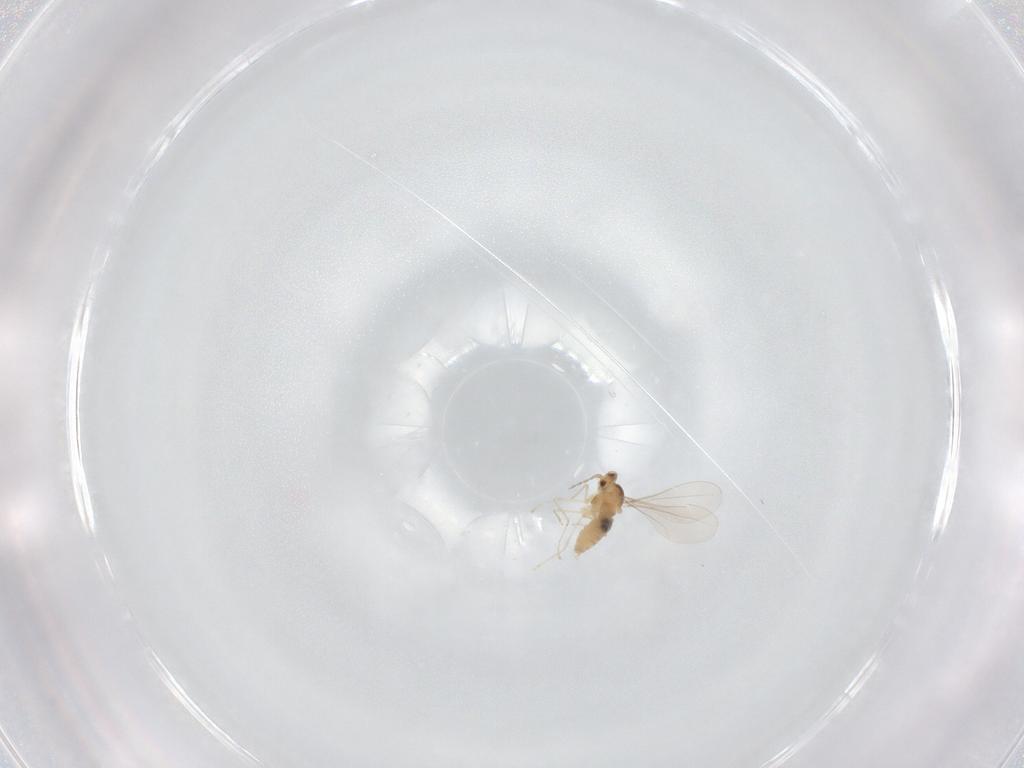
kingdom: Animalia
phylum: Arthropoda
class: Insecta
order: Diptera
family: Cecidomyiidae
